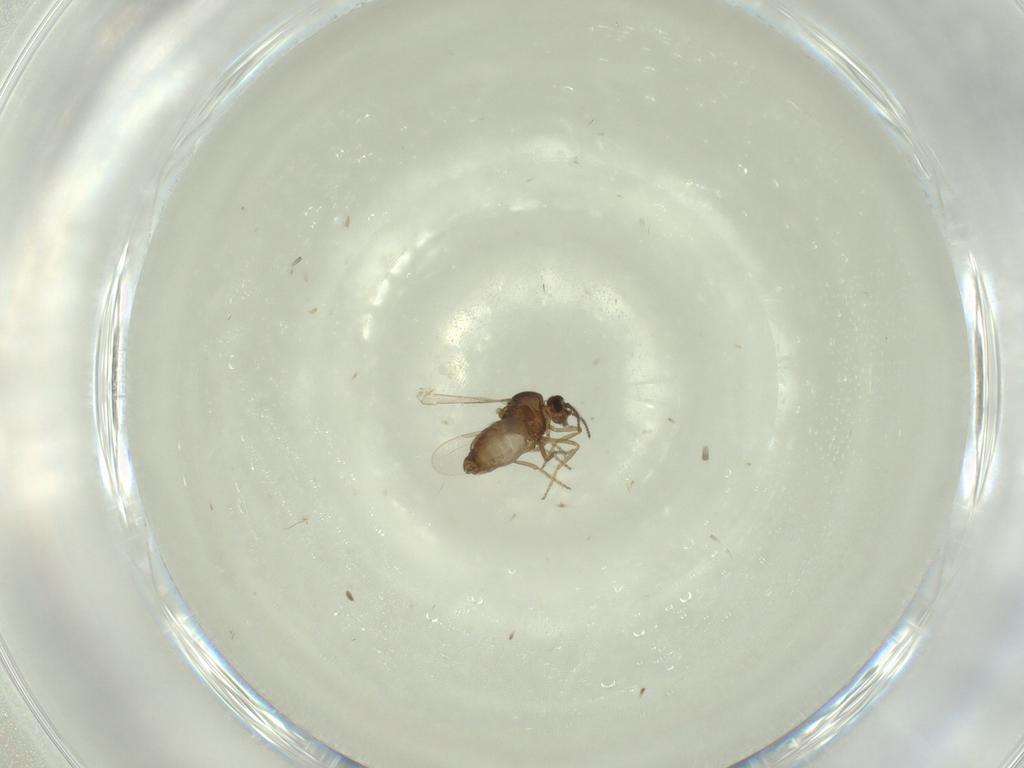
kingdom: Animalia
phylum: Arthropoda
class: Insecta
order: Diptera
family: Ceratopogonidae
